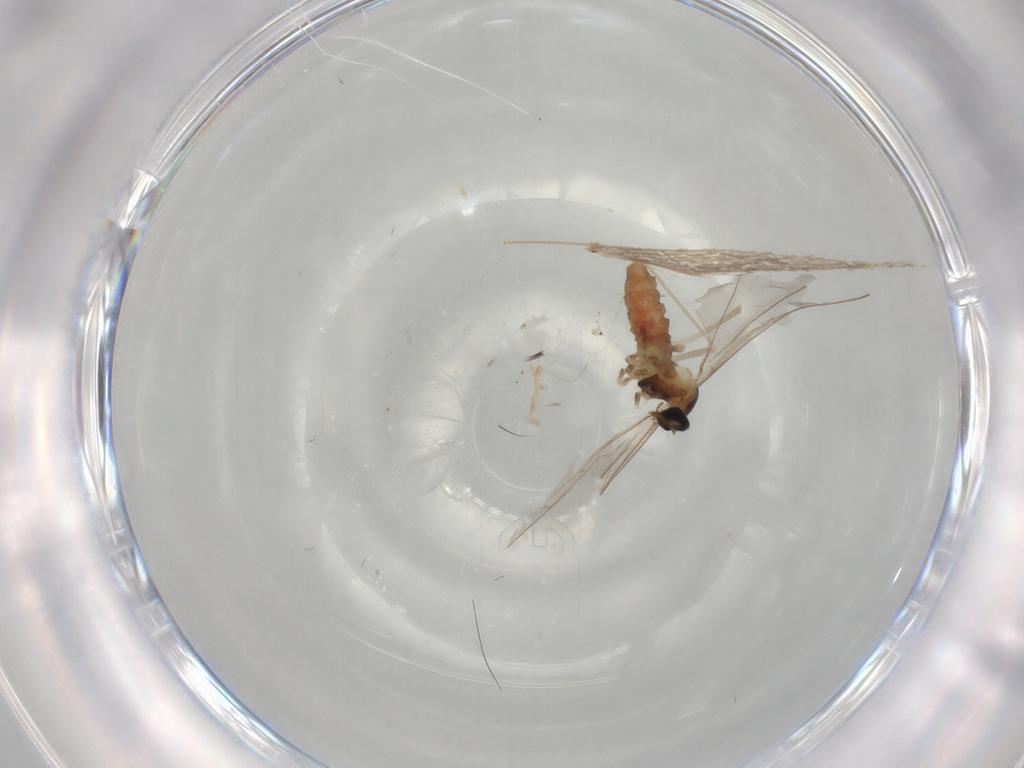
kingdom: Animalia
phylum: Arthropoda
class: Insecta
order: Diptera
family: Cecidomyiidae
